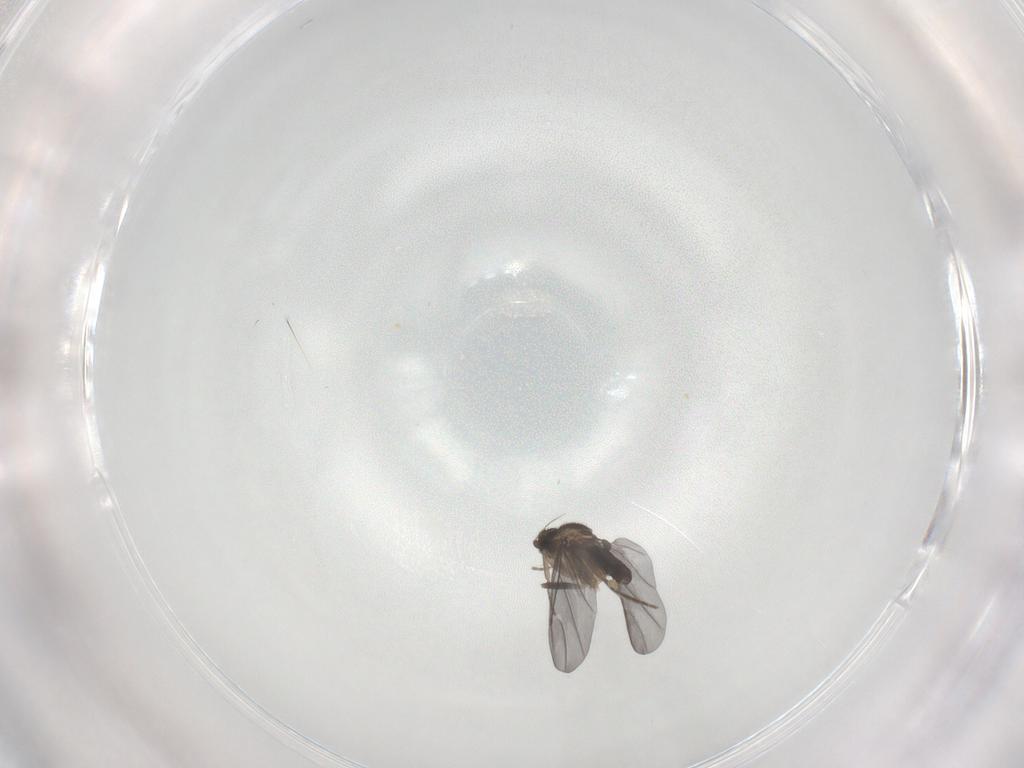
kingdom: Animalia
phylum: Arthropoda
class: Insecta
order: Diptera
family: Phoridae
